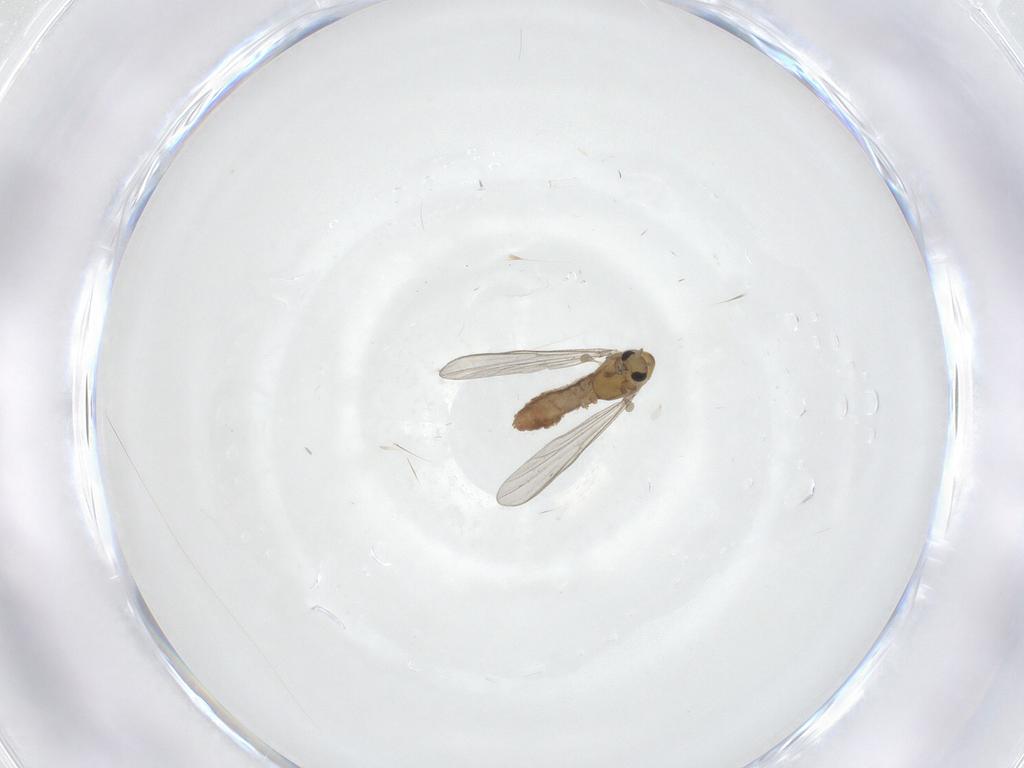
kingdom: Animalia
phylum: Arthropoda
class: Insecta
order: Diptera
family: Chironomidae
